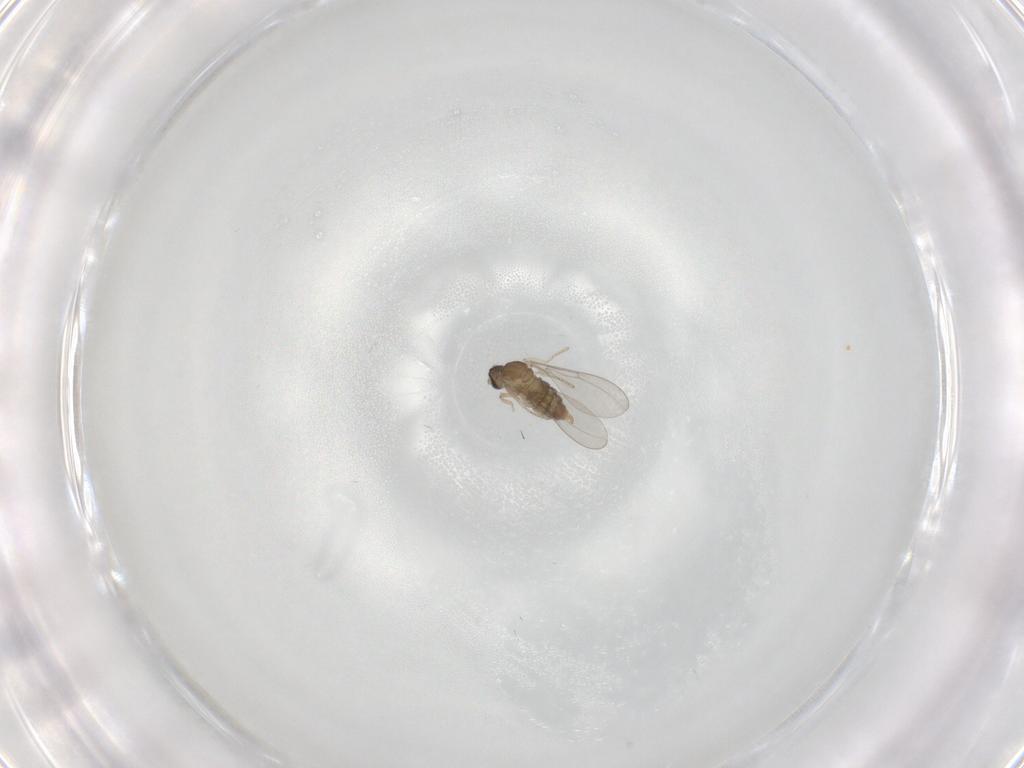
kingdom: Animalia
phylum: Arthropoda
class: Insecta
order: Diptera
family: Cecidomyiidae
